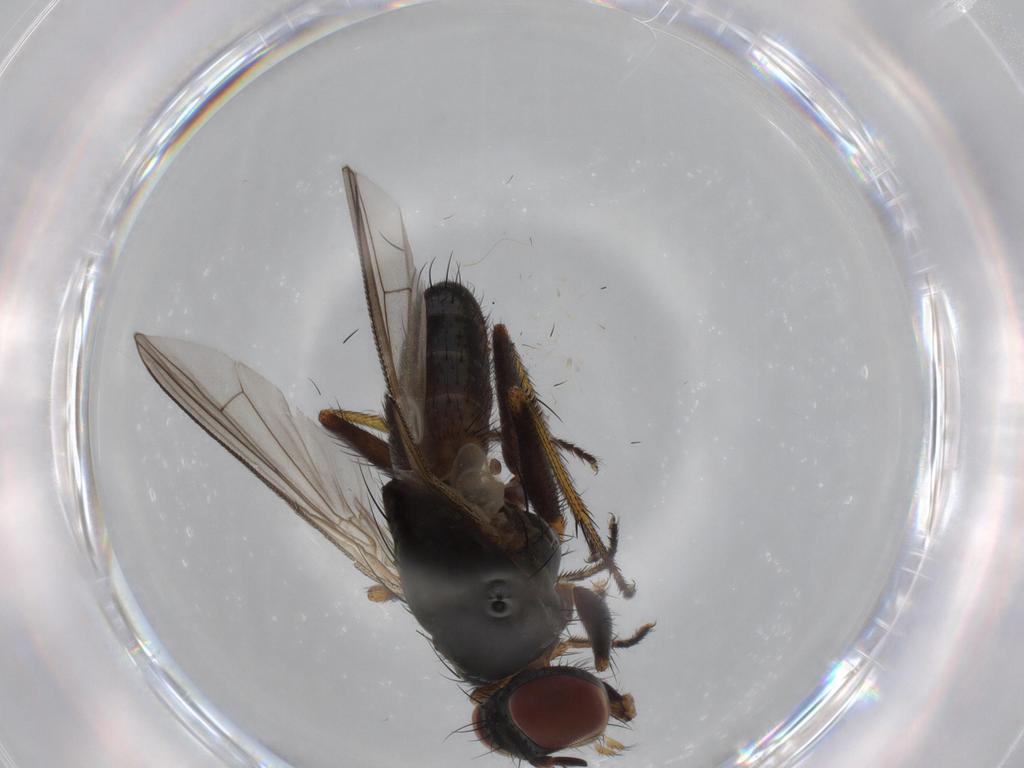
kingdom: Animalia
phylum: Arthropoda
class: Insecta
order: Diptera
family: Muscidae
